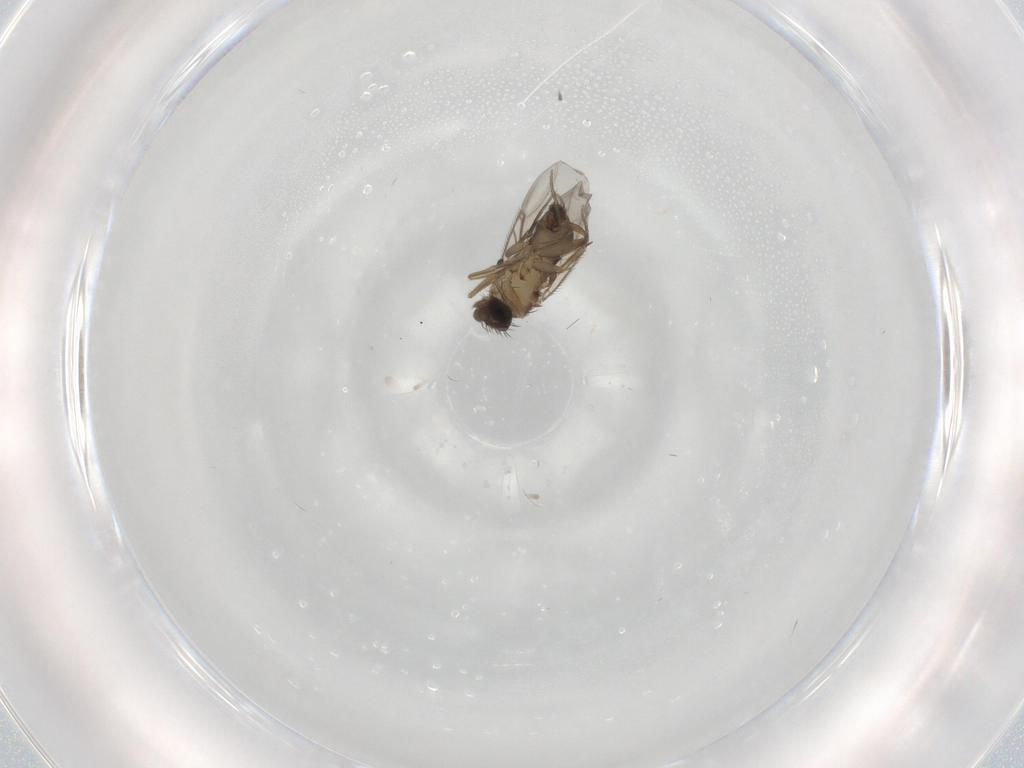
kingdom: Animalia
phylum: Arthropoda
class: Insecta
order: Diptera
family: Phoridae
